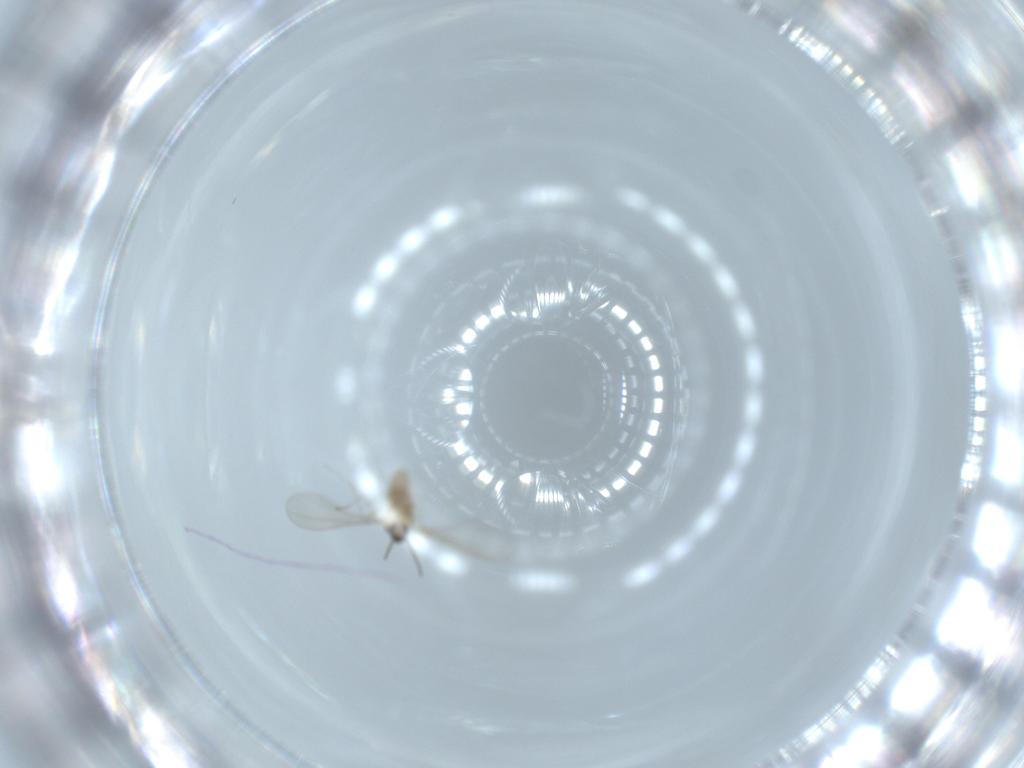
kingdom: Animalia
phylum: Arthropoda
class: Insecta
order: Diptera
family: Cecidomyiidae
